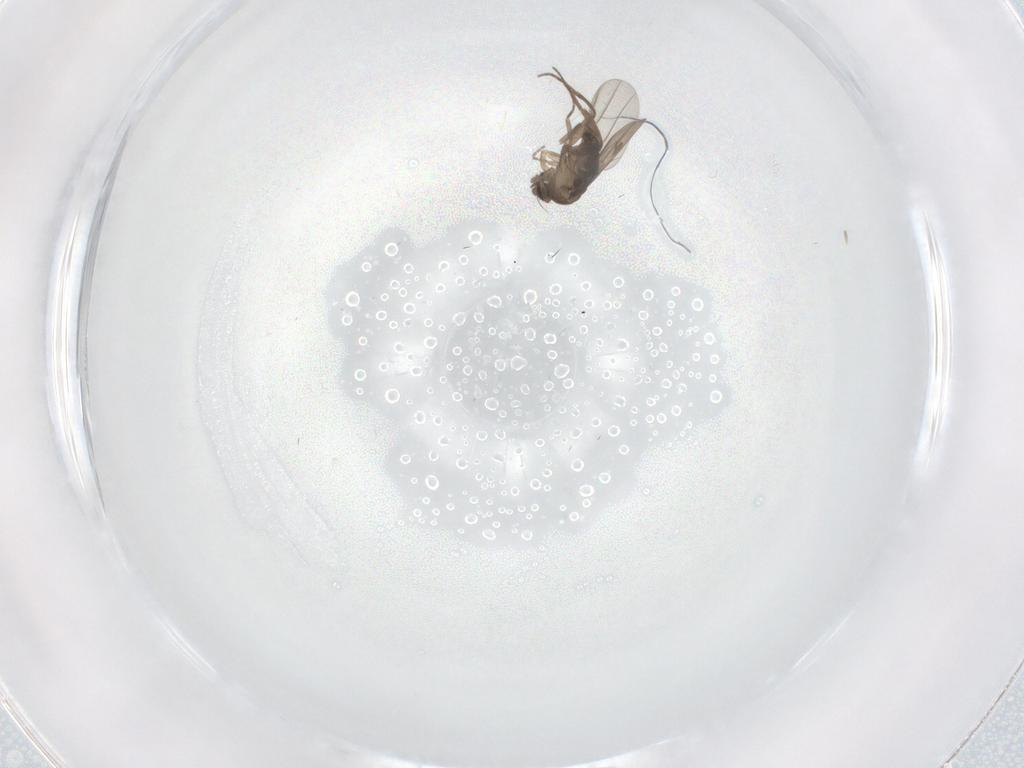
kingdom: Animalia
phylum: Arthropoda
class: Insecta
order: Diptera
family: Phoridae
